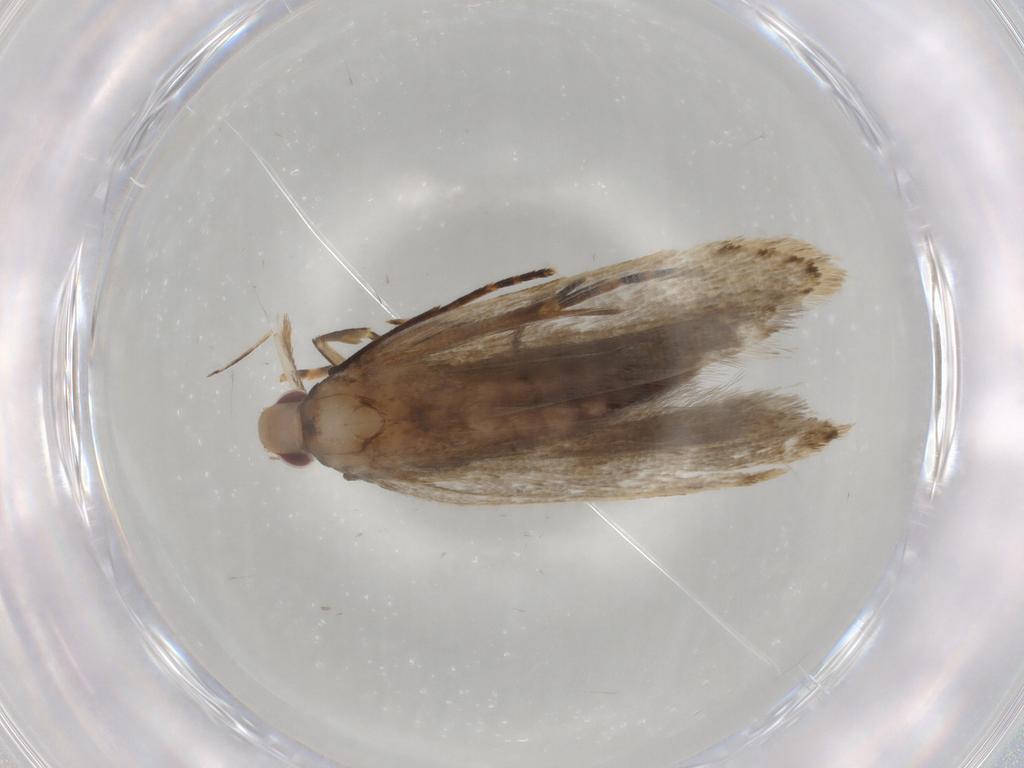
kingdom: Animalia
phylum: Arthropoda
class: Insecta
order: Lepidoptera
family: Gelechiidae
